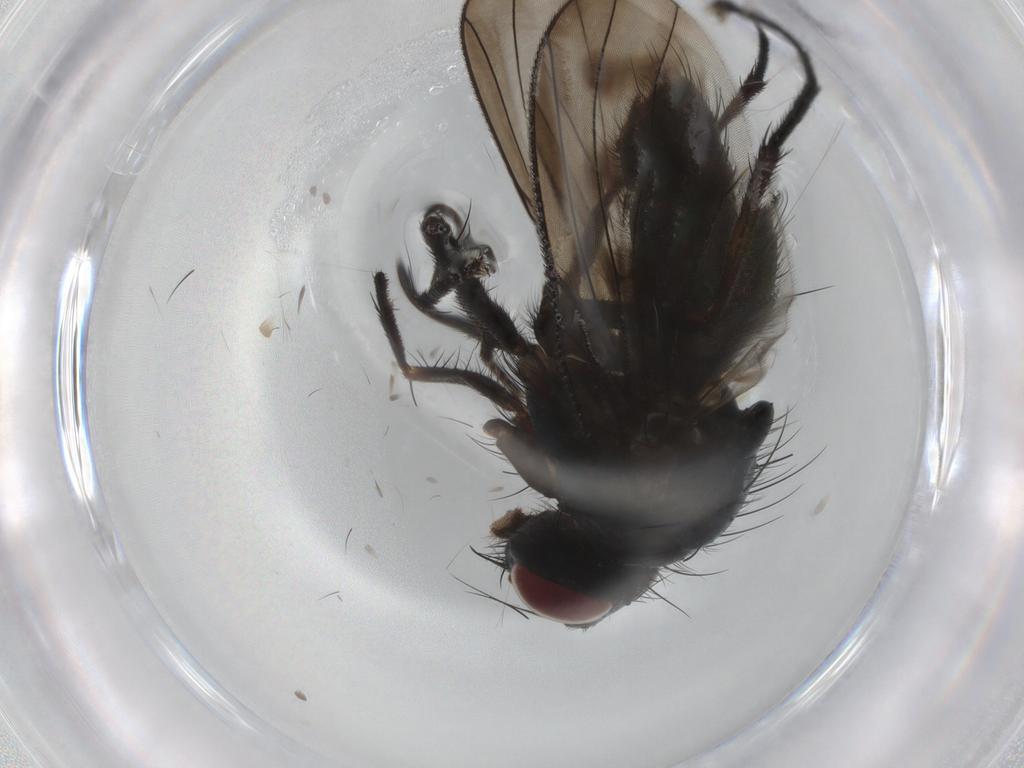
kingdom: Animalia
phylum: Arthropoda
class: Insecta
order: Diptera
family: Muscidae
